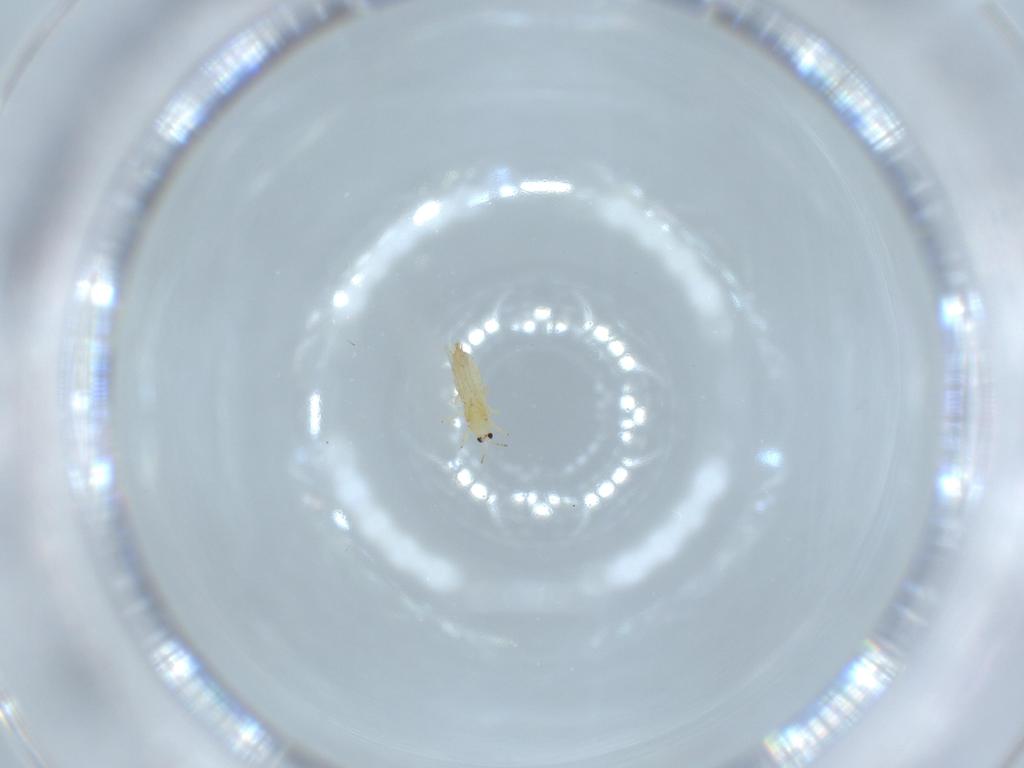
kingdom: Animalia
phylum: Arthropoda
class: Insecta
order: Thysanoptera
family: Thripidae
